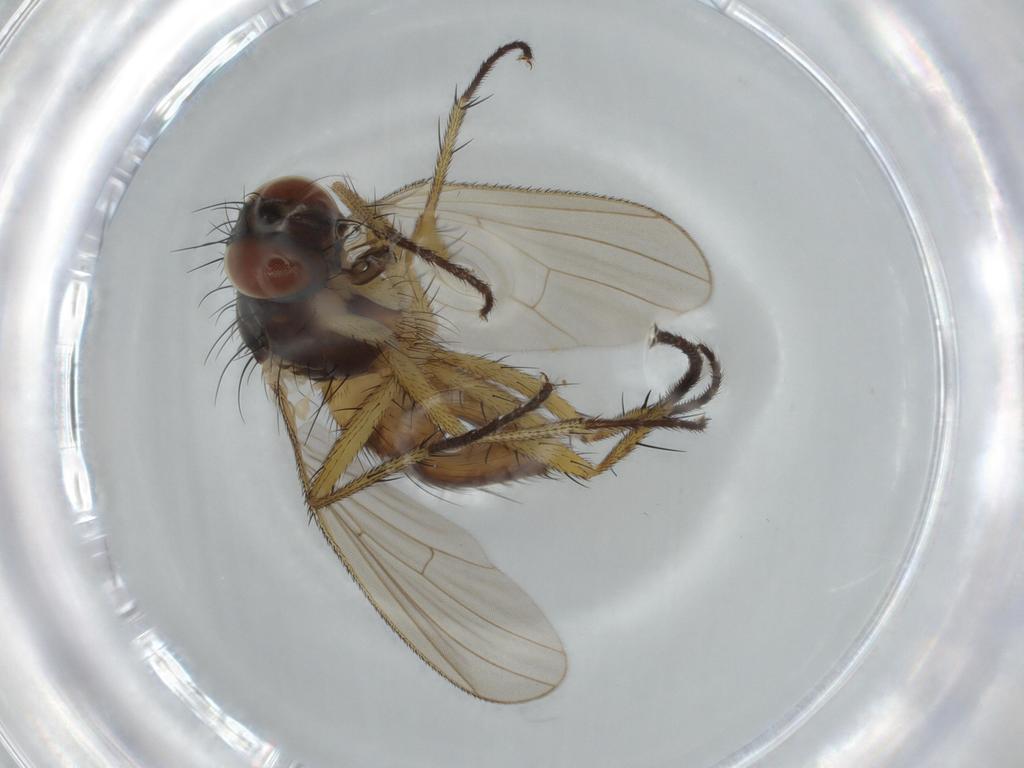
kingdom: Animalia
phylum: Arthropoda
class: Insecta
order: Diptera
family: Muscidae
